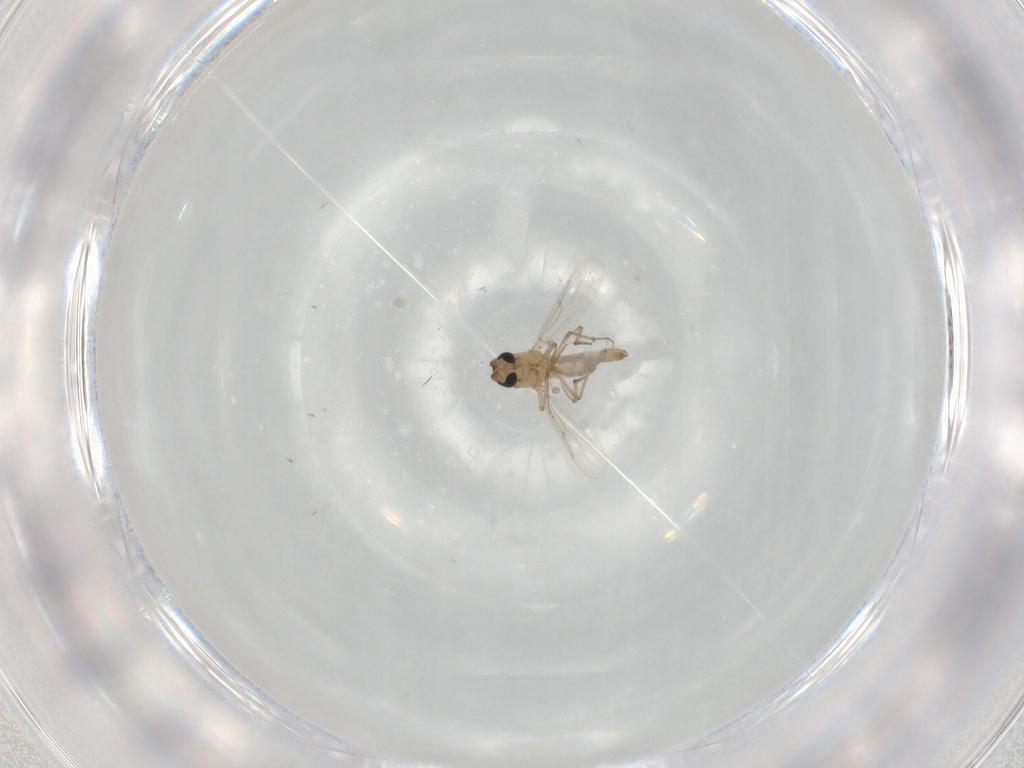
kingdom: Animalia
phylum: Arthropoda
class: Insecta
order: Diptera
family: Ceratopogonidae
